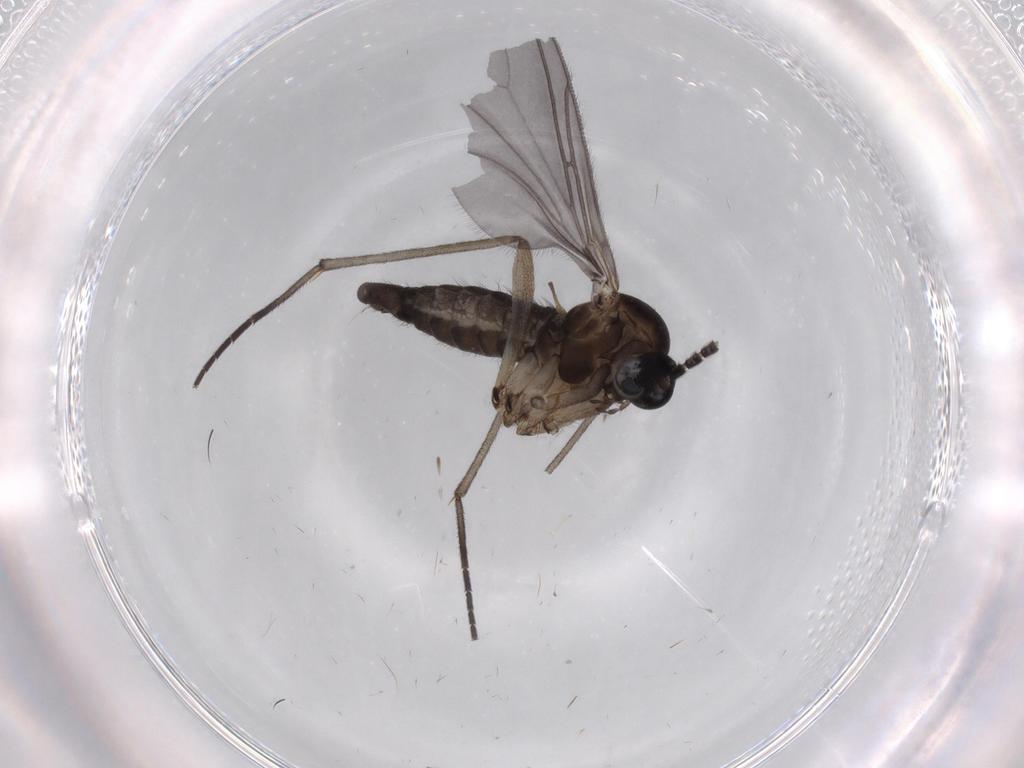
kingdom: Animalia
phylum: Arthropoda
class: Insecta
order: Diptera
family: Sciaridae
